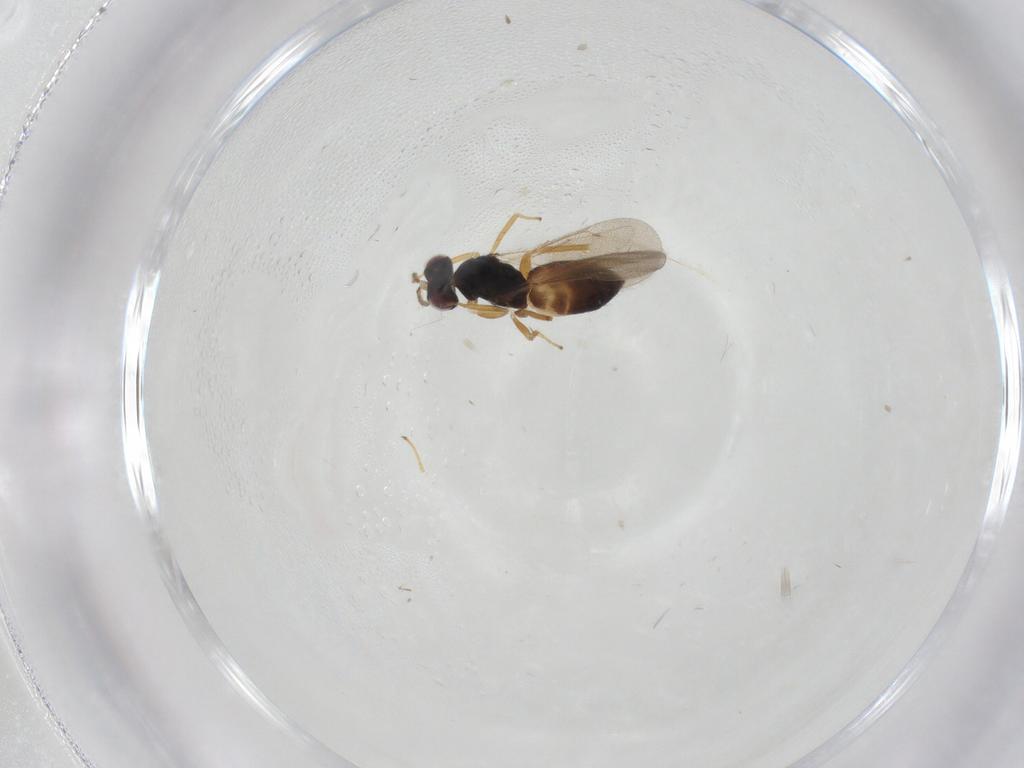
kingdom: Animalia
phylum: Arthropoda
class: Insecta
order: Hymenoptera
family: Eulophidae
